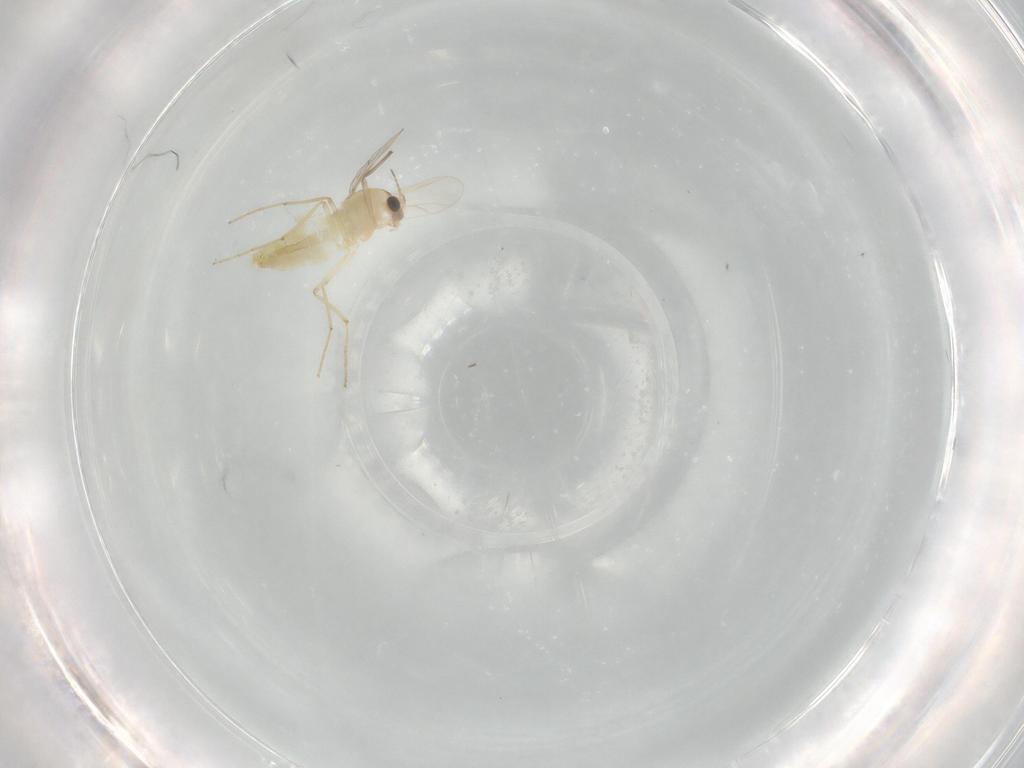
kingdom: Animalia
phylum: Arthropoda
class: Insecta
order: Diptera
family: Chironomidae
